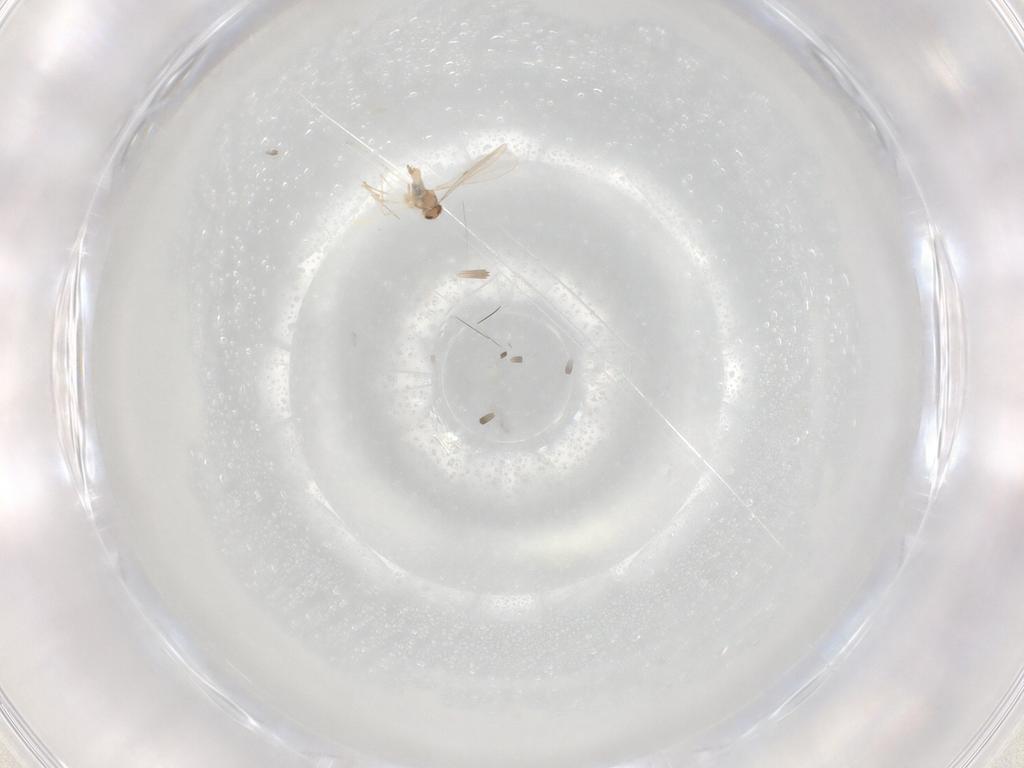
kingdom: Animalia
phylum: Arthropoda
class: Insecta
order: Diptera
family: Cecidomyiidae
